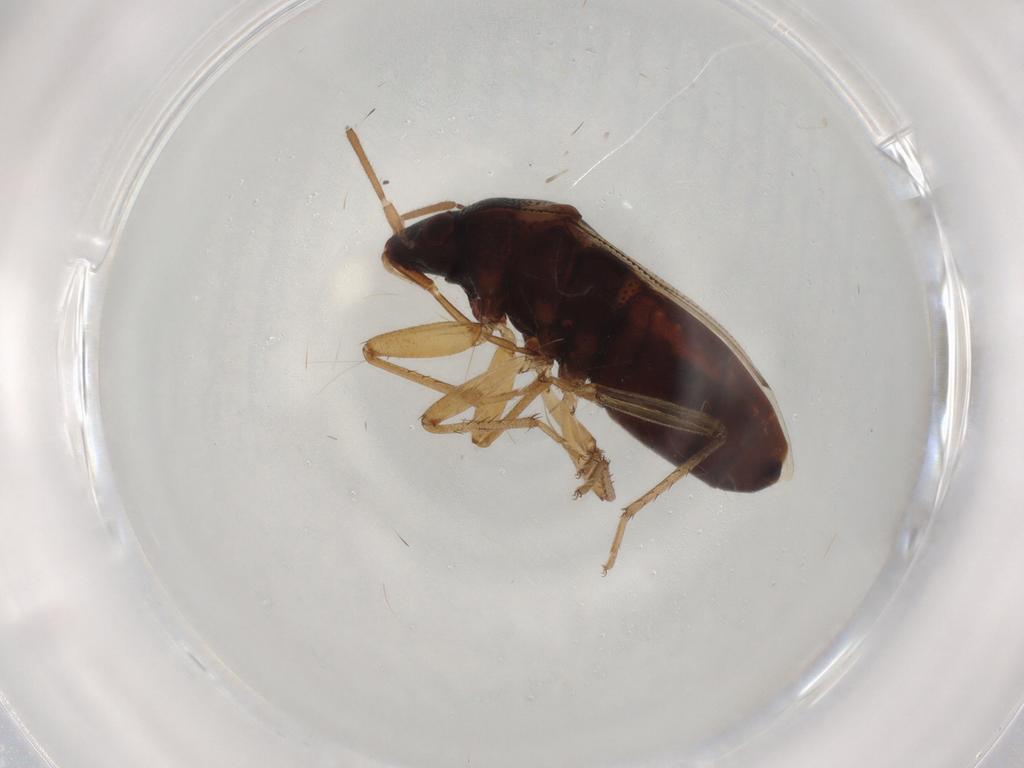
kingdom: Animalia
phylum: Arthropoda
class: Insecta
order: Hemiptera
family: Rhyparochromidae
